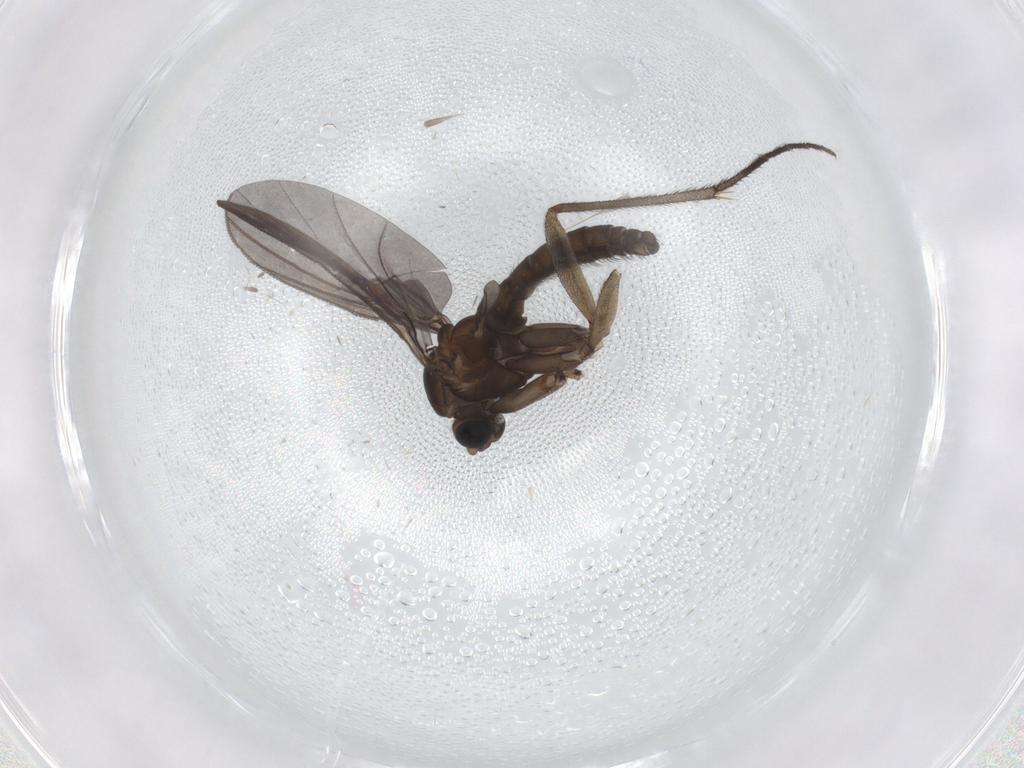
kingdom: Animalia
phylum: Arthropoda
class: Insecta
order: Diptera
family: Sciaridae
